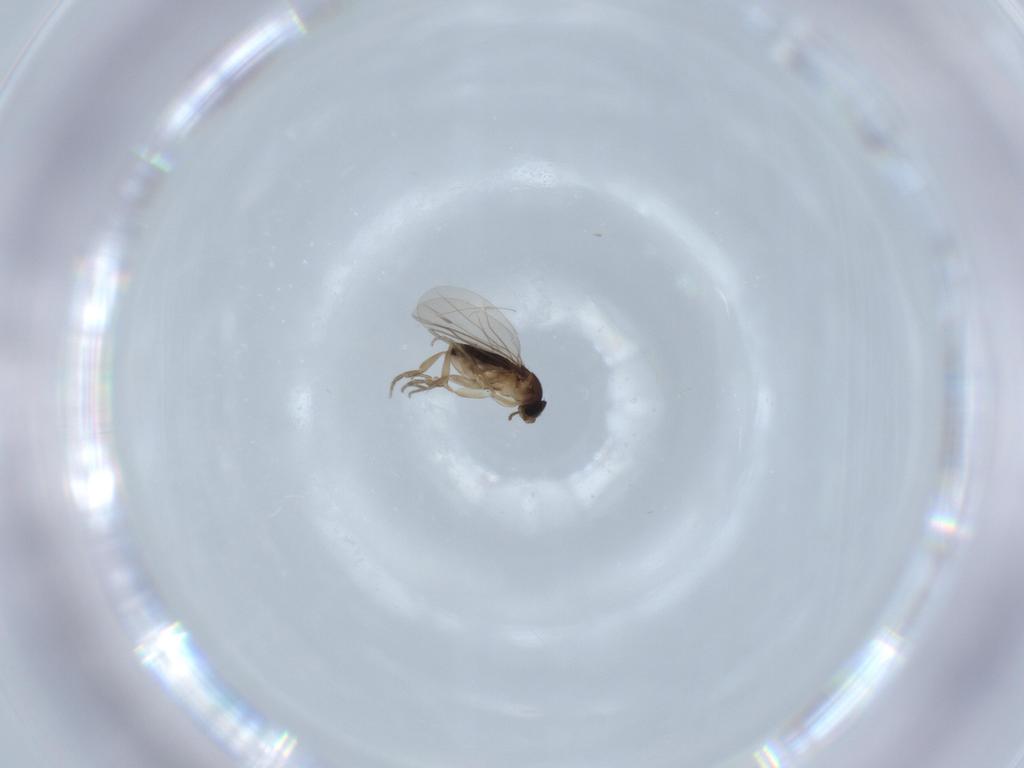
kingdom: Animalia
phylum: Arthropoda
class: Insecta
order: Diptera
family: Phoridae
